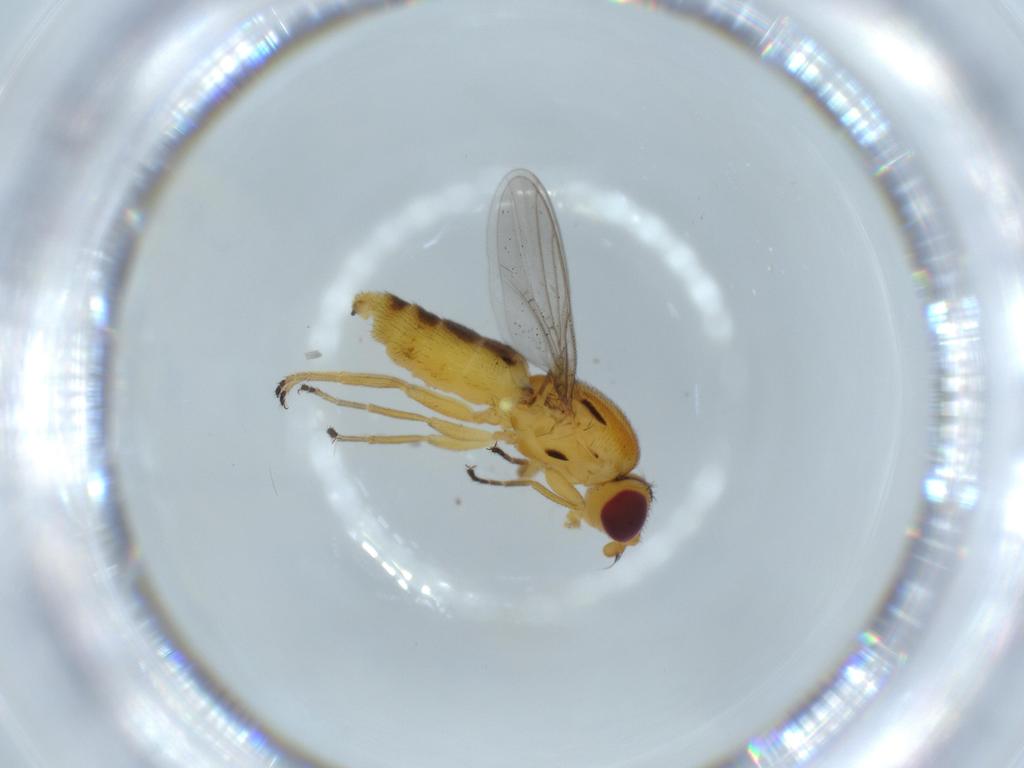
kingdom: Animalia
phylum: Arthropoda
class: Insecta
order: Diptera
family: Chloropidae
